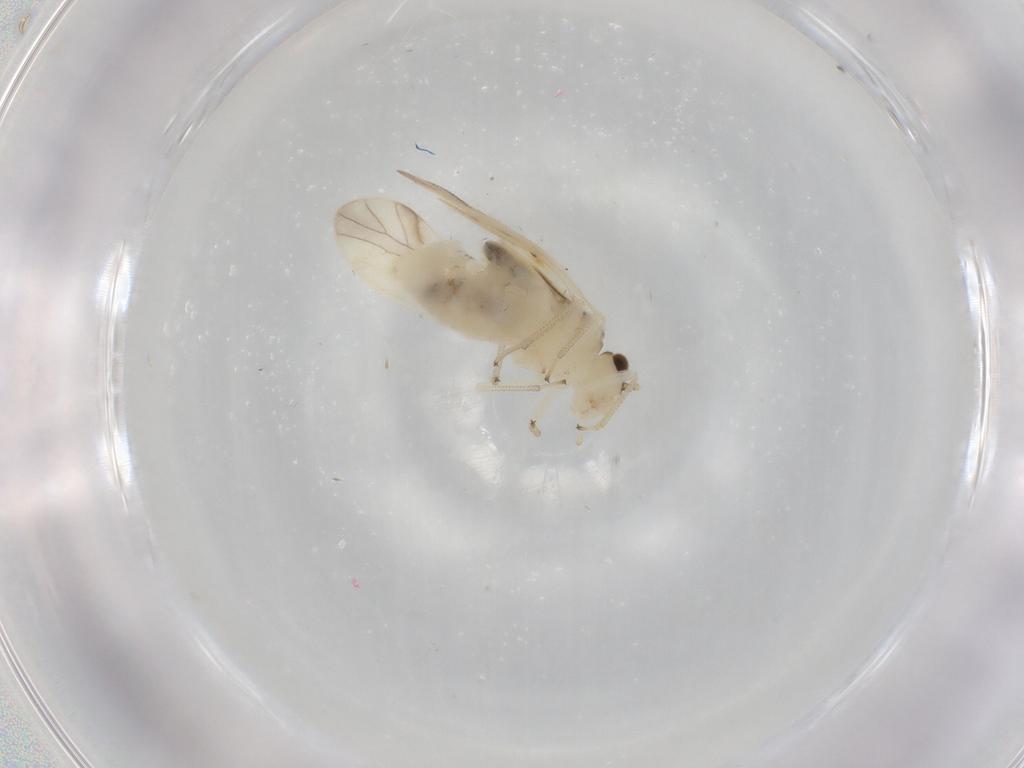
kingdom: Animalia
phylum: Arthropoda
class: Insecta
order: Psocodea
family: Caeciliusidae
